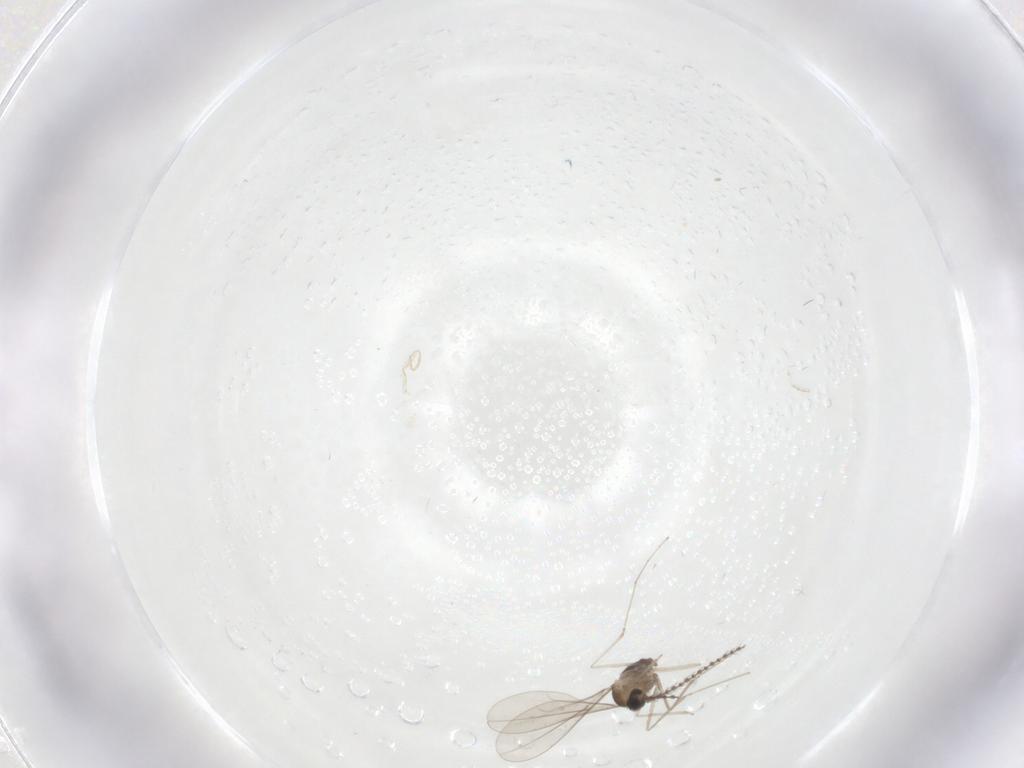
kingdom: Animalia
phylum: Arthropoda
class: Insecta
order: Diptera
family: Cecidomyiidae
